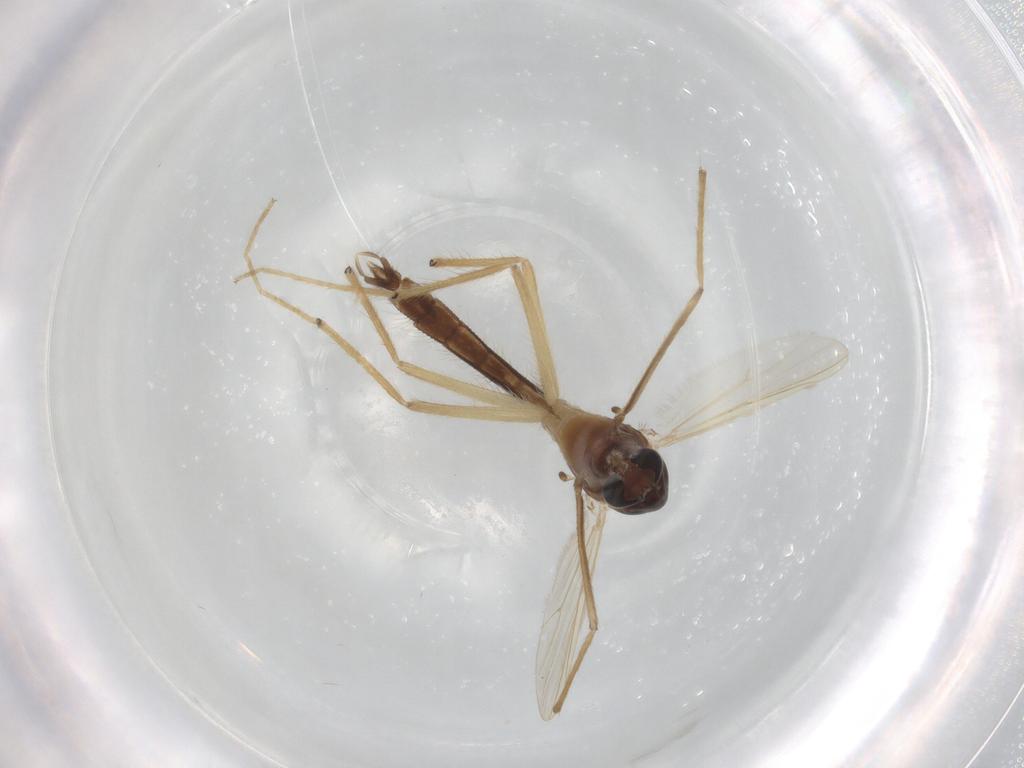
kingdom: Animalia
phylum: Arthropoda
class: Insecta
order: Diptera
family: Chironomidae
